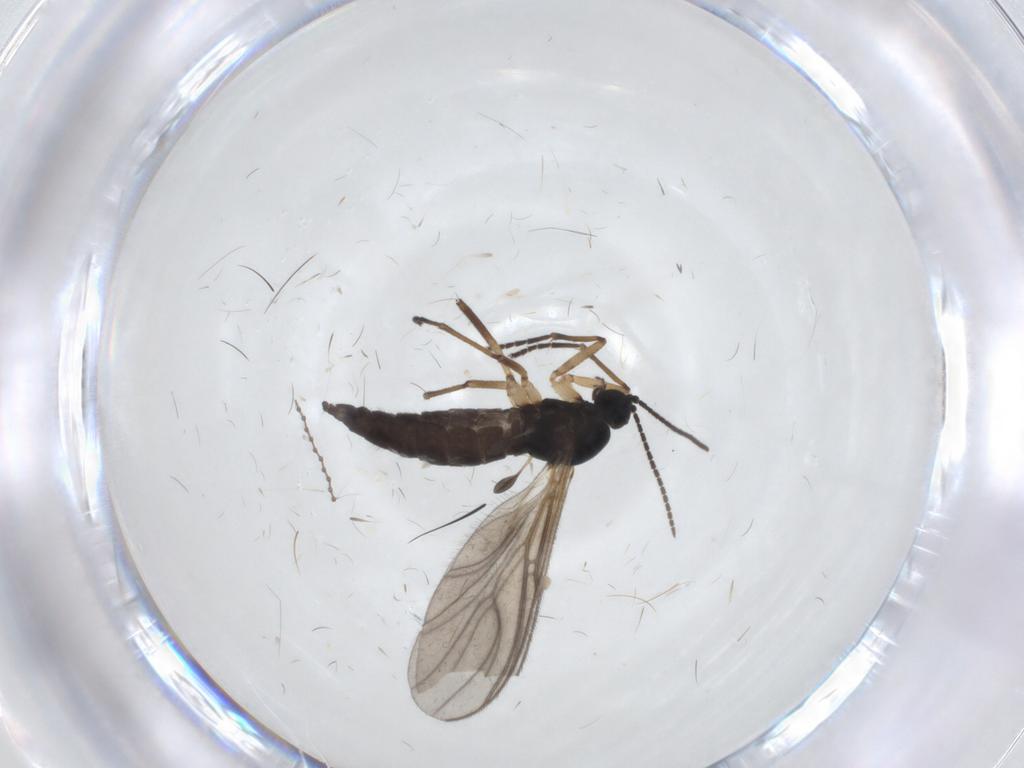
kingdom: Animalia
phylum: Arthropoda
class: Insecta
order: Diptera
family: Sciaridae
